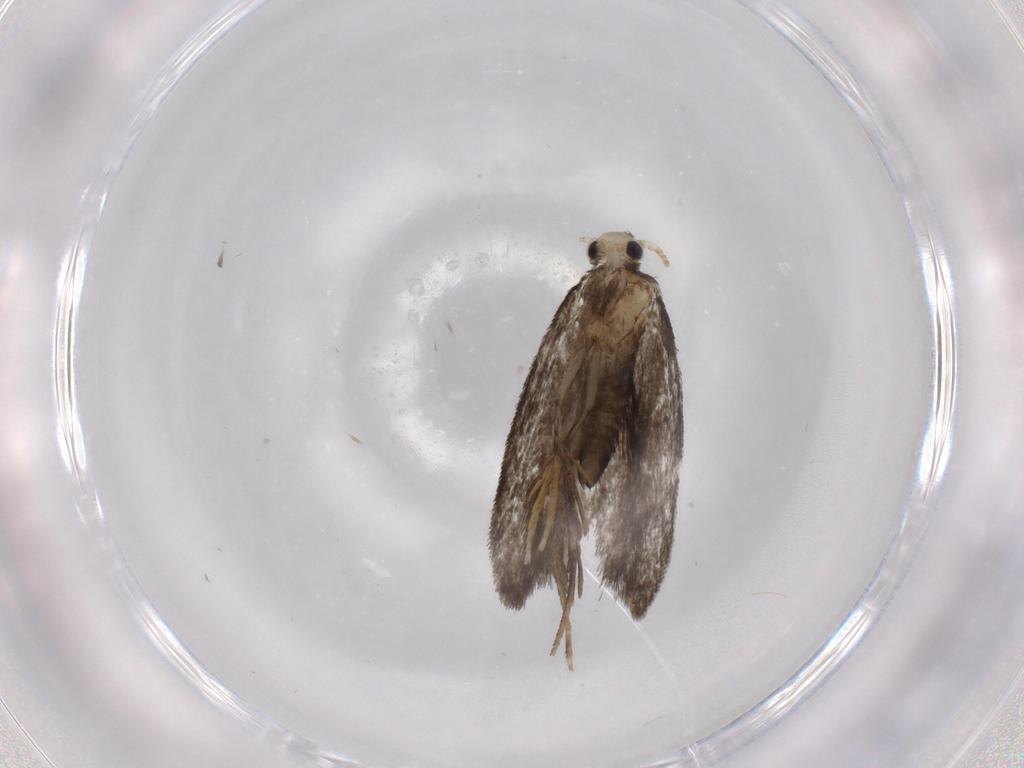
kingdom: Animalia
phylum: Arthropoda
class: Insecta
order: Lepidoptera
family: Psychidae
